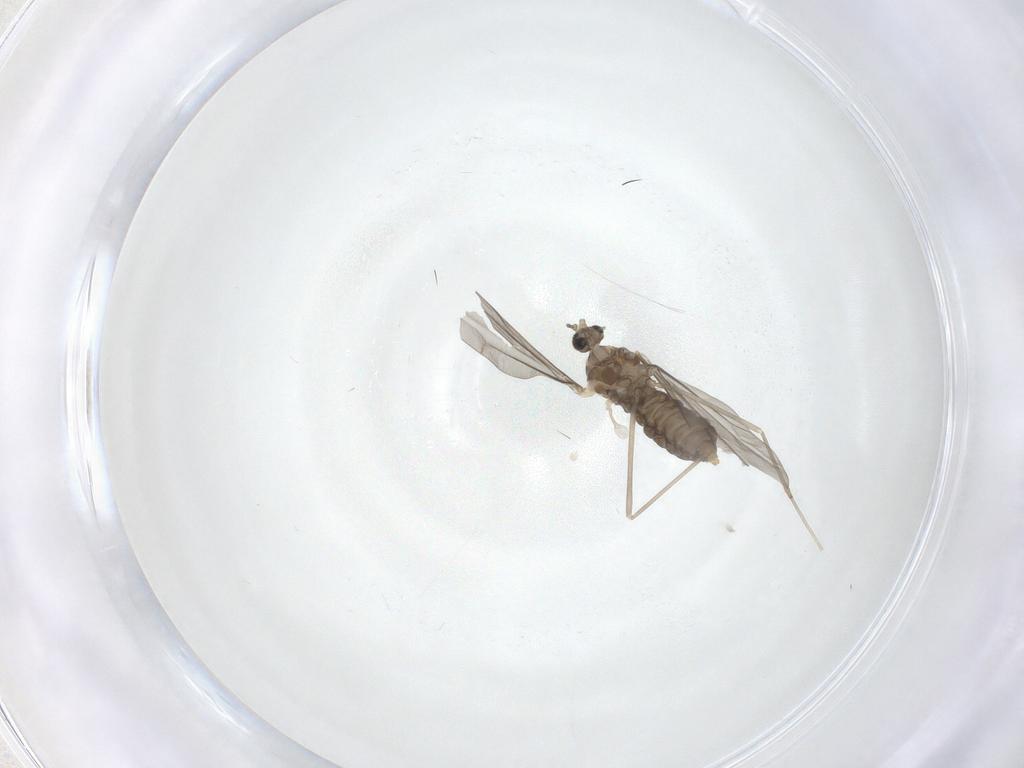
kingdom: Animalia
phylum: Arthropoda
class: Insecta
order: Diptera
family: Cecidomyiidae
